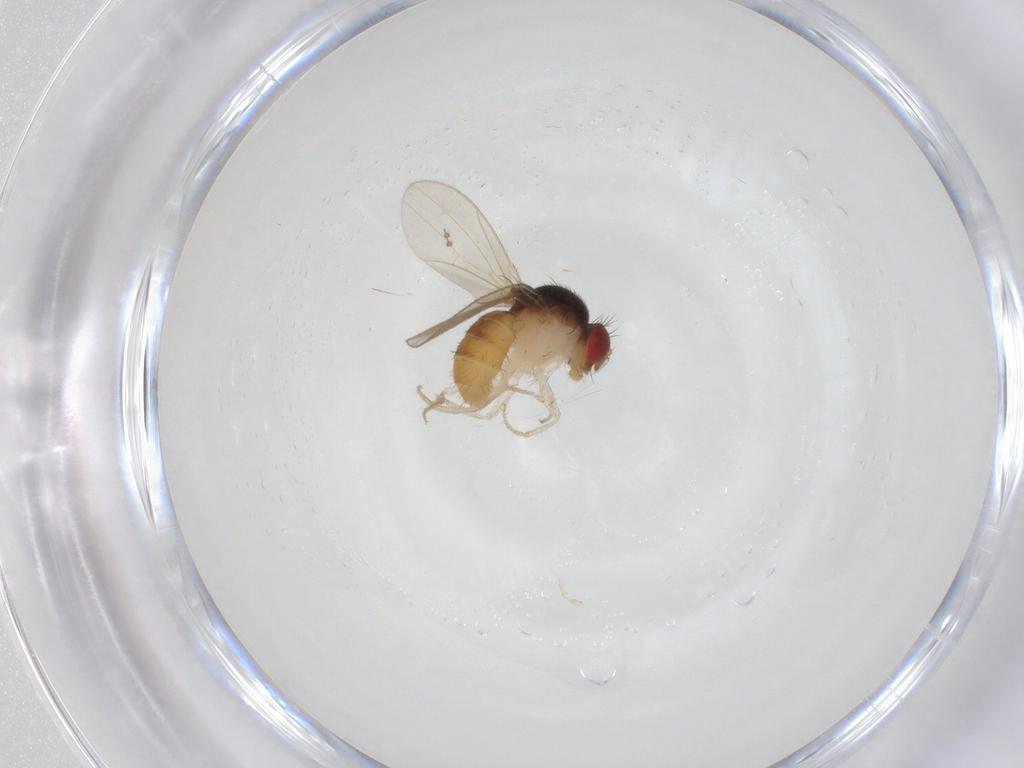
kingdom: Animalia
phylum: Arthropoda
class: Insecta
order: Diptera
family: Drosophilidae
